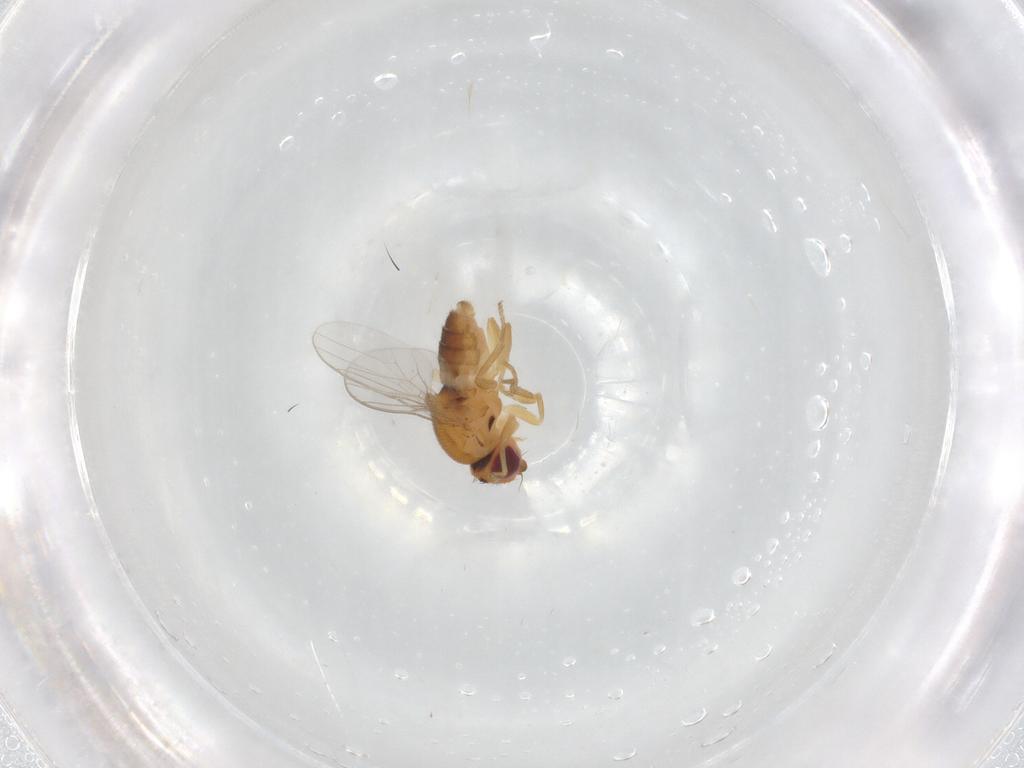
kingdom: Animalia
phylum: Arthropoda
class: Insecta
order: Diptera
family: Chloropidae
